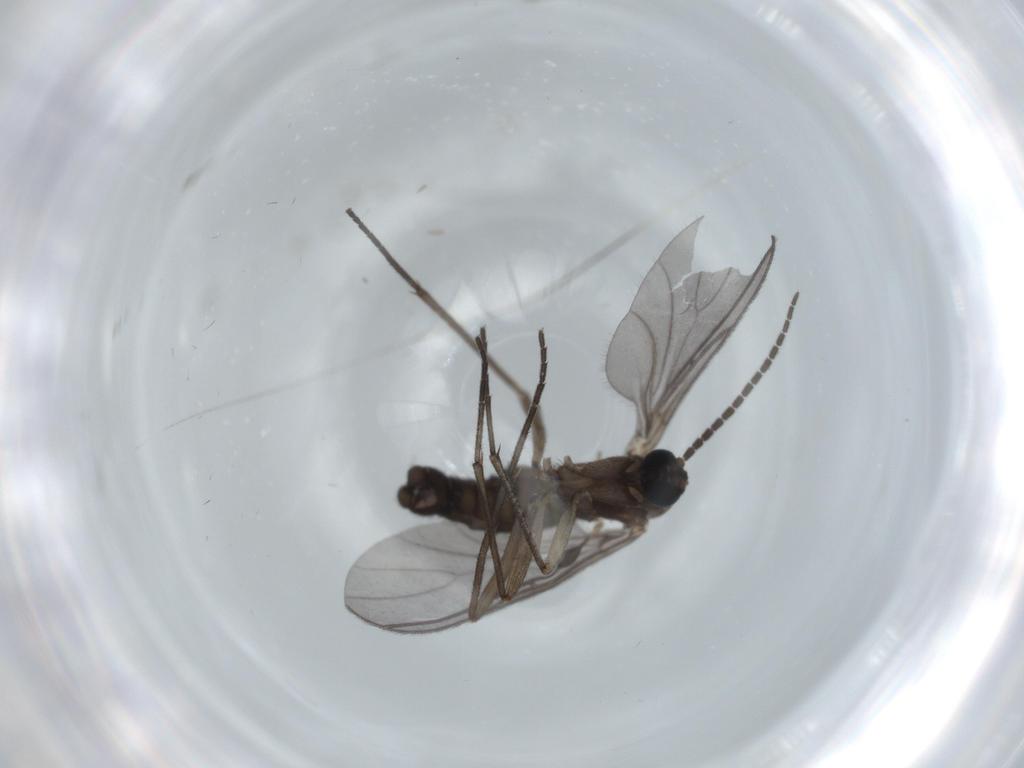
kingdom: Animalia
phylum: Arthropoda
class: Insecta
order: Diptera
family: Sciaridae
